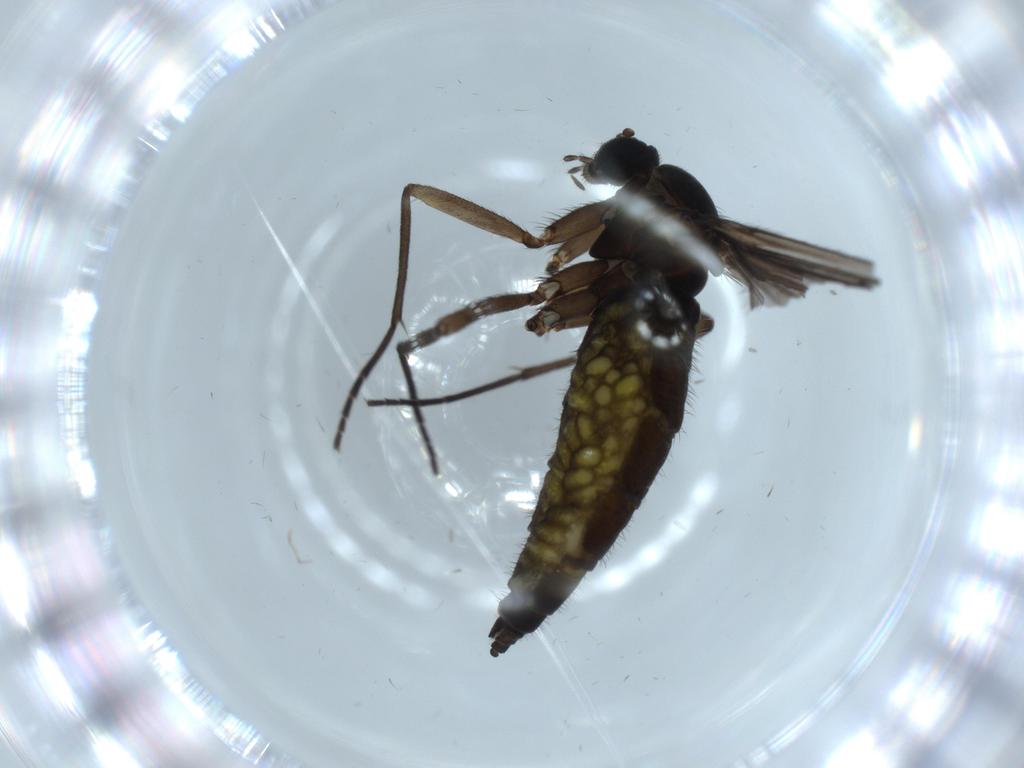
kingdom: Animalia
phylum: Arthropoda
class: Insecta
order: Diptera
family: Sciaridae
